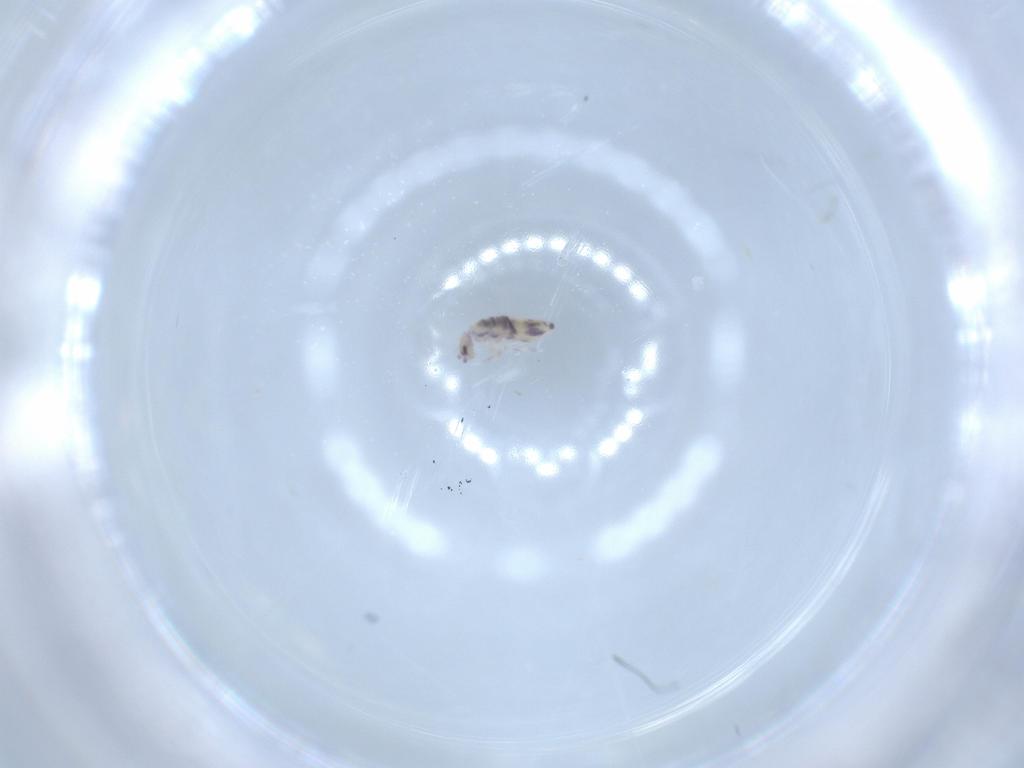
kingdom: Animalia
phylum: Arthropoda
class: Collembola
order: Entomobryomorpha
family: Entomobryidae
